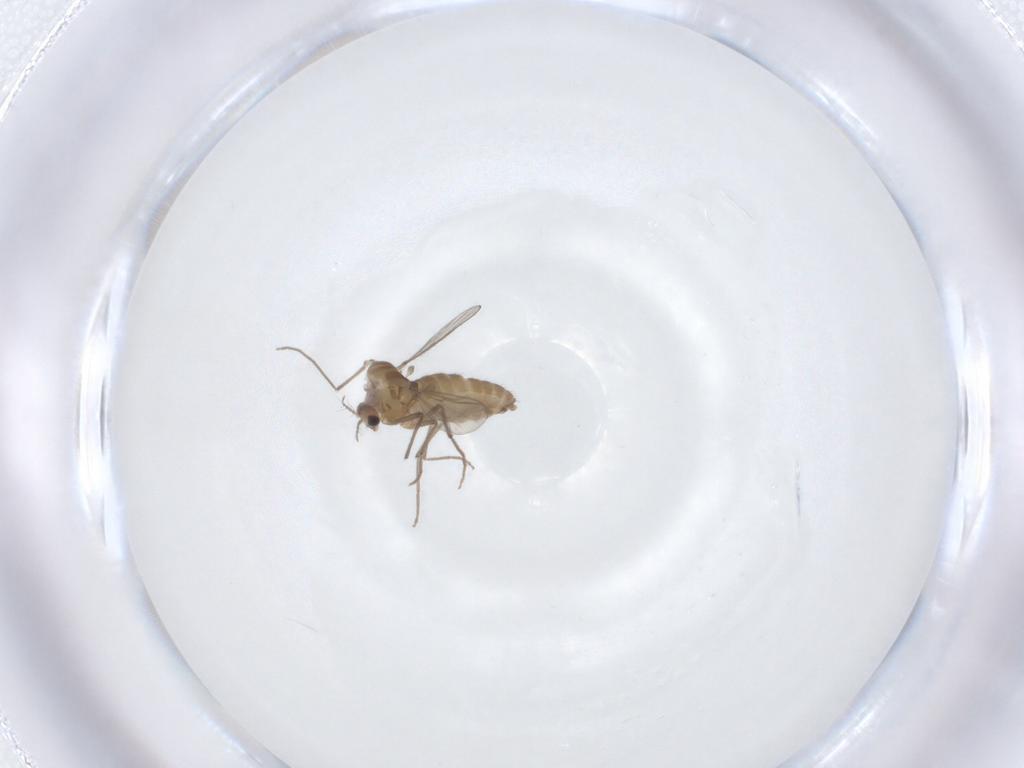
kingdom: Animalia
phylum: Arthropoda
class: Insecta
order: Diptera
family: Chironomidae
